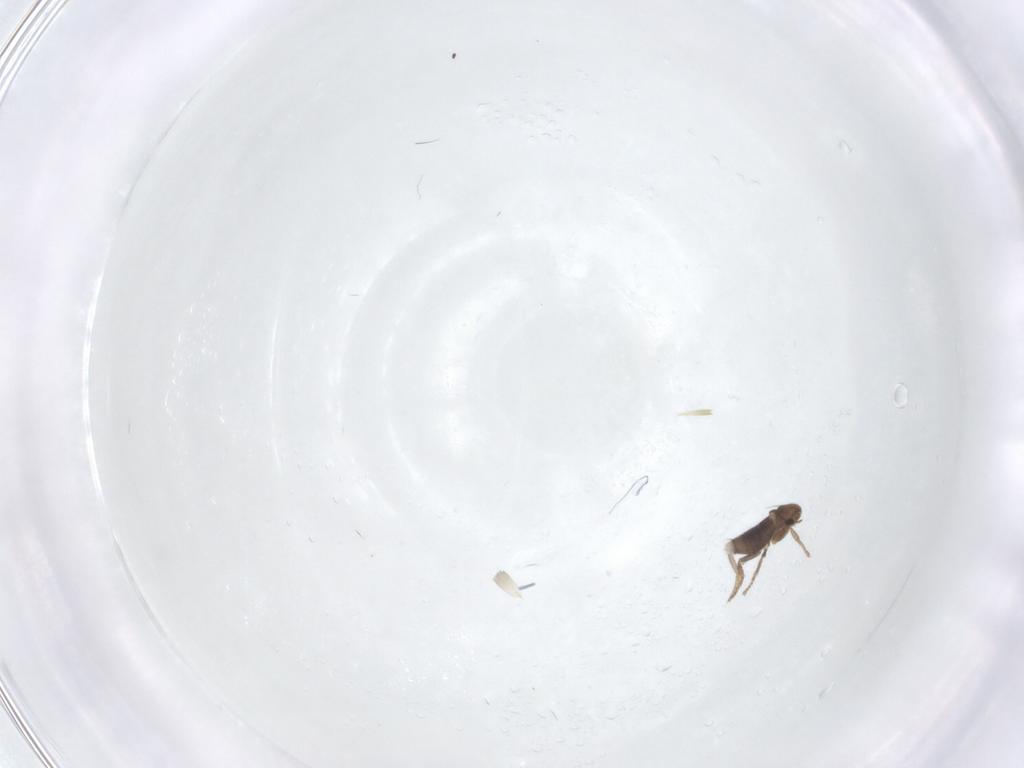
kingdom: Animalia
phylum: Arthropoda
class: Insecta
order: Diptera
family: Phoridae
